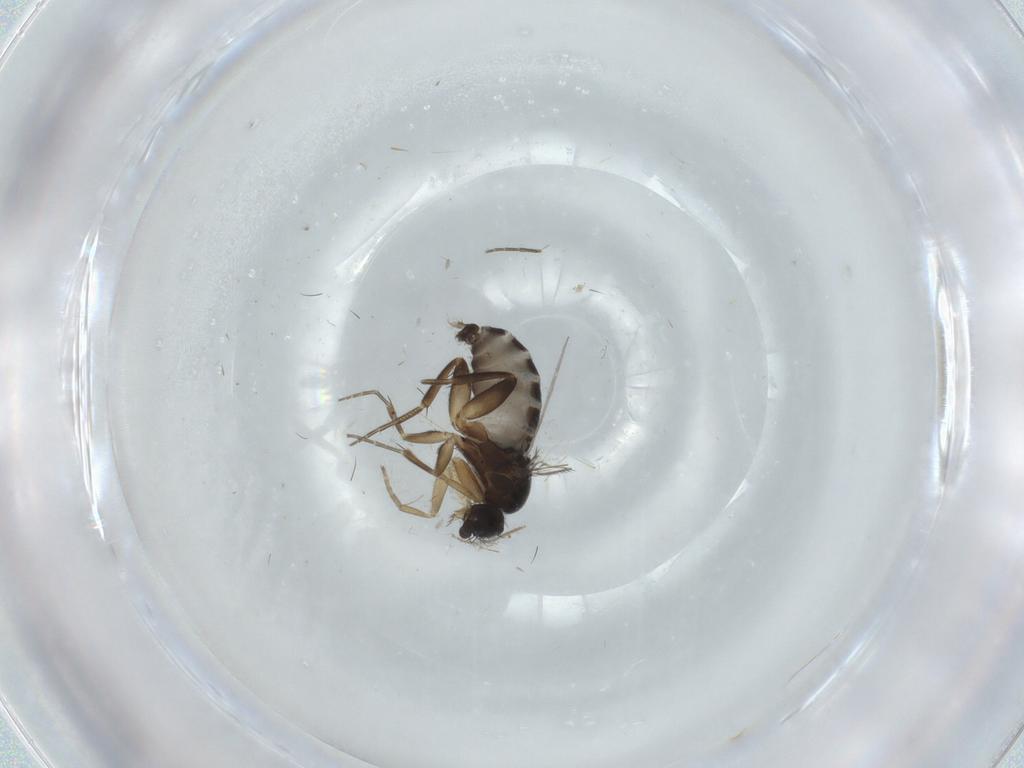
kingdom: Animalia
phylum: Arthropoda
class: Insecta
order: Diptera
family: Phoridae
